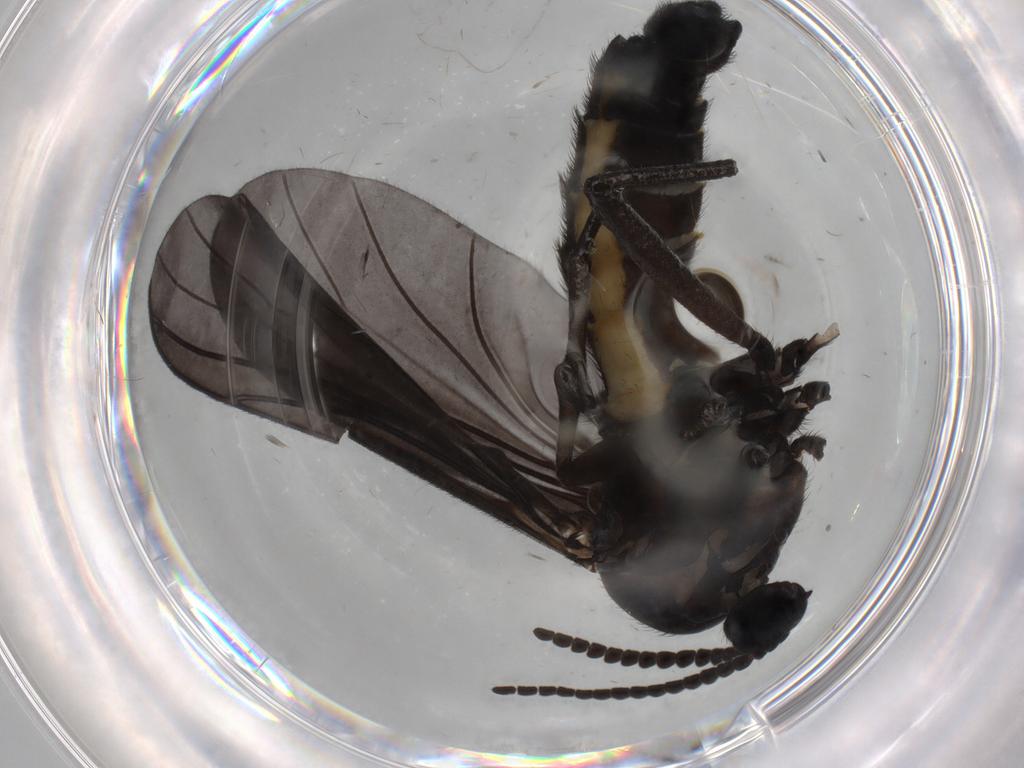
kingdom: Animalia
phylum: Arthropoda
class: Insecta
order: Diptera
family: Sciaridae
